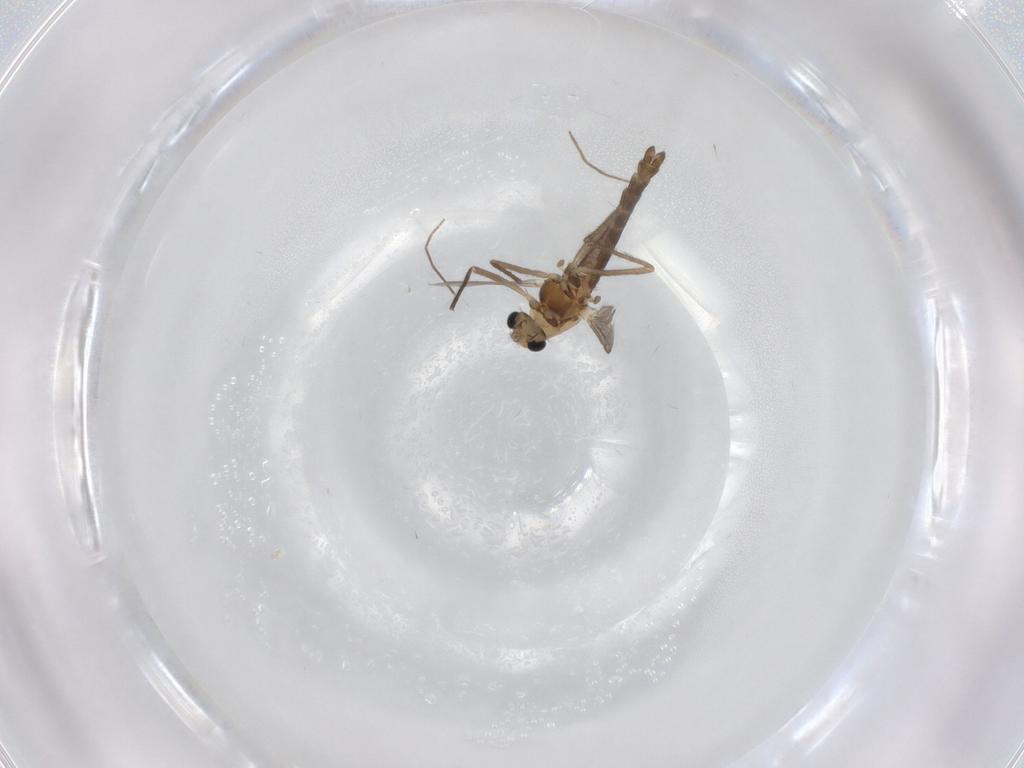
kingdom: Animalia
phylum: Arthropoda
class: Insecta
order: Diptera
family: Chironomidae
